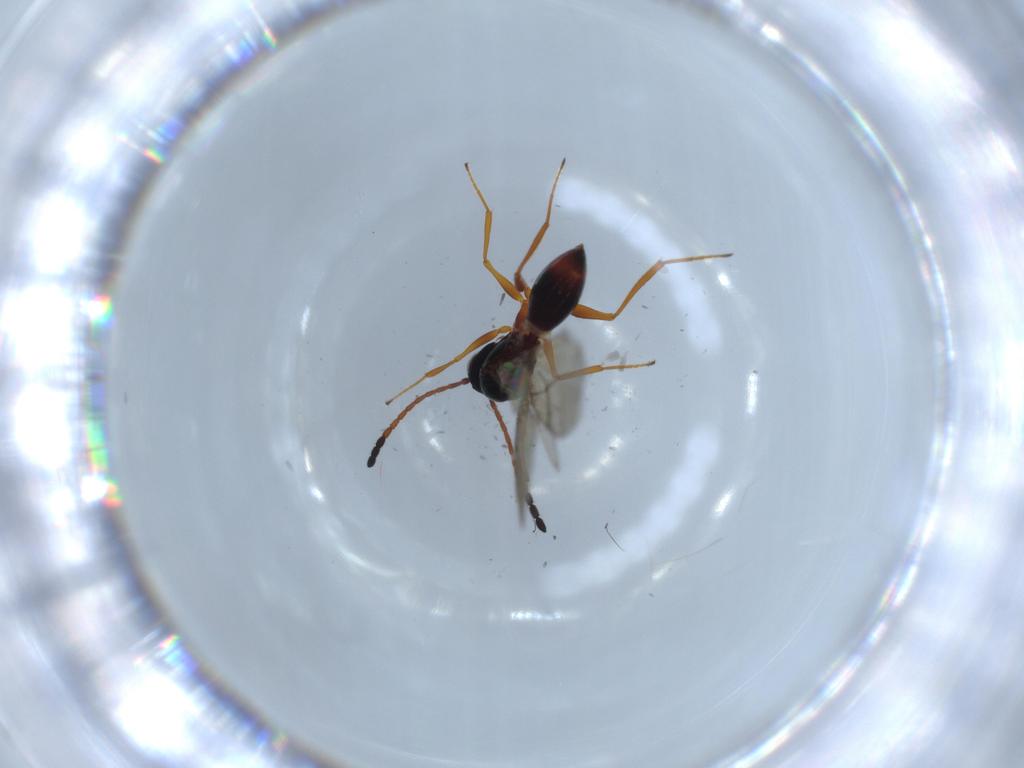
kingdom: Animalia
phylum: Arthropoda
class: Insecta
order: Hymenoptera
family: Figitidae
